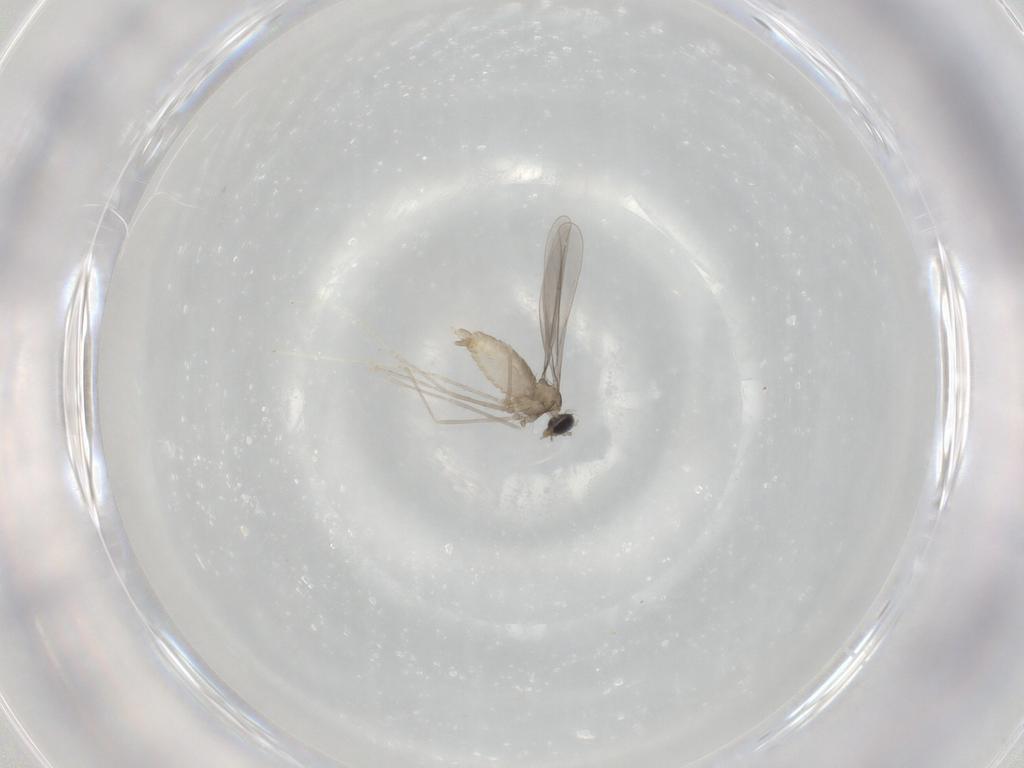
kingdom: Animalia
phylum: Arthropoda
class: Insecta
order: Diptera
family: Cecidomyiidae
